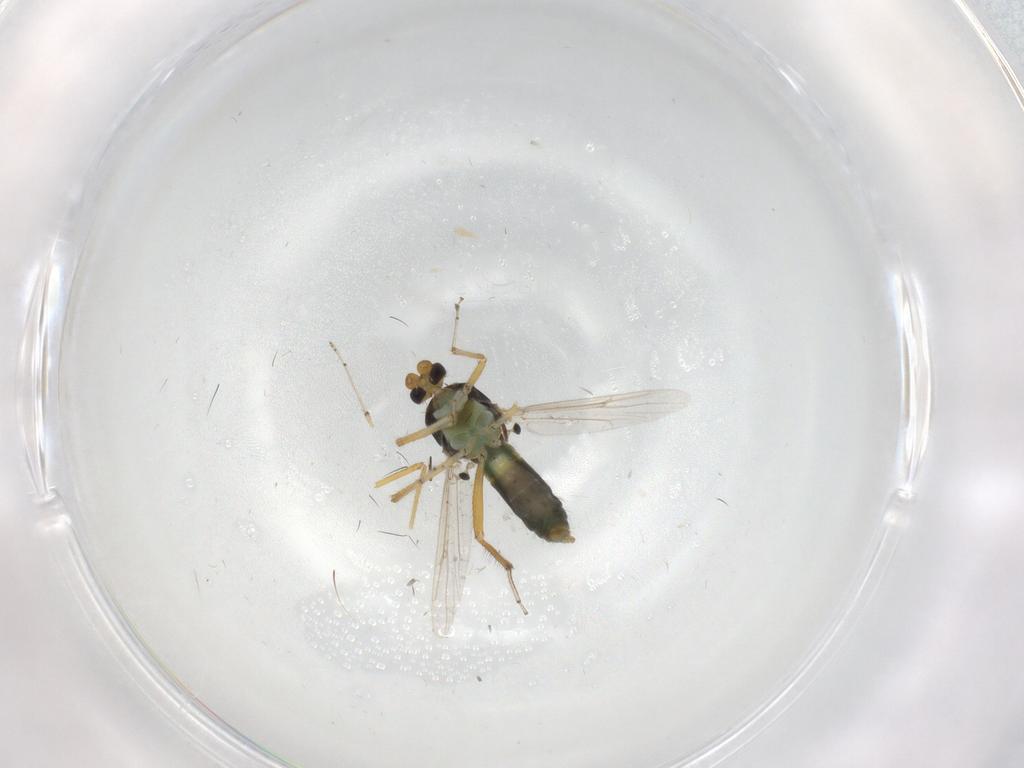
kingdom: Animalia
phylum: Arthropoda
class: Insecta
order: Diptera
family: Ceratopogonidae
